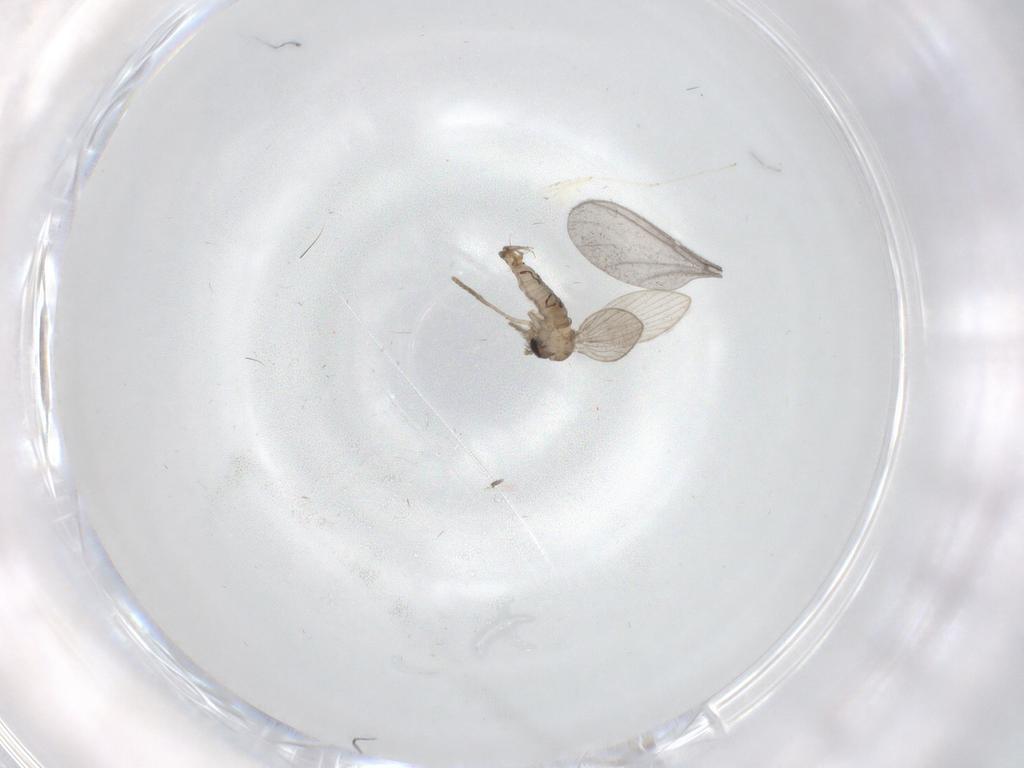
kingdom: Animalia
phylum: Arthropoda
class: Insecta
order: Diptera
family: Psychodidae
